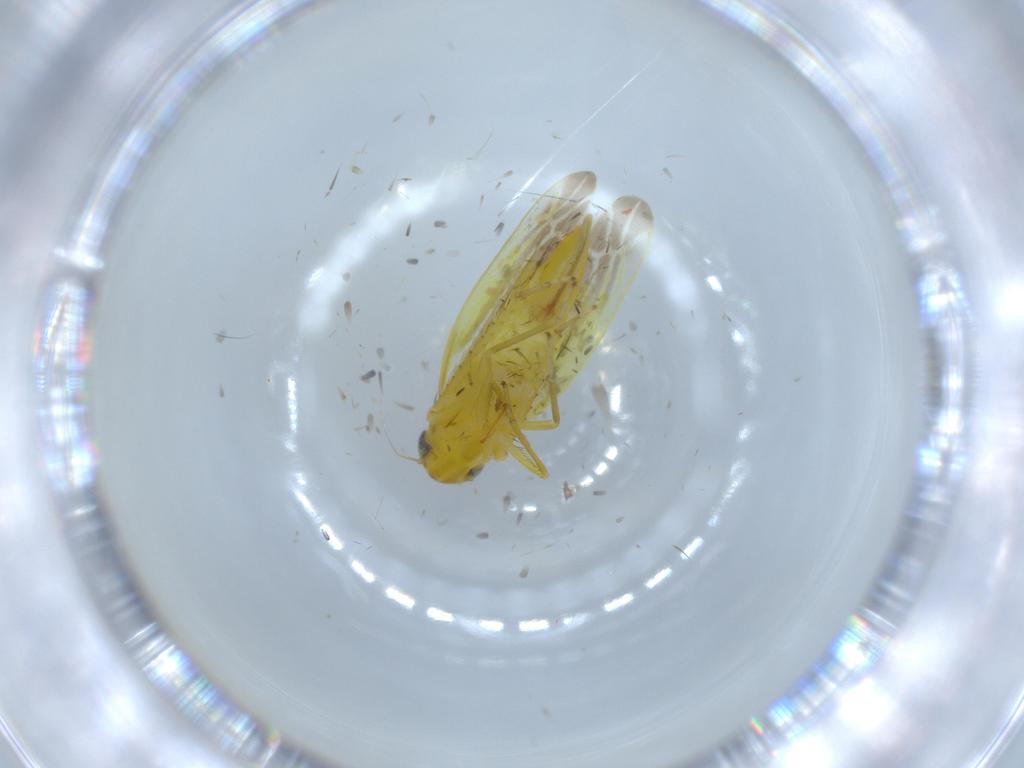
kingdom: Animalia
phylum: Arthropoda
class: Insecta
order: Hemiptera
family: Cicadellidae
